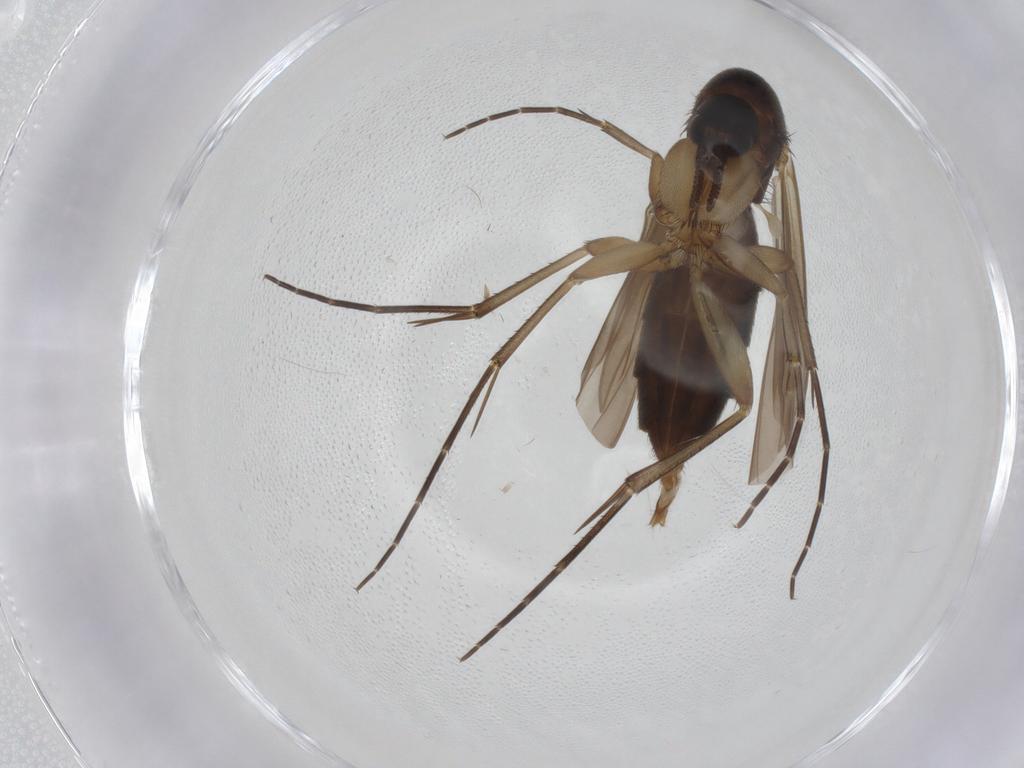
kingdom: Animalia
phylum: Arthropoda
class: Insecta
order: Diptera
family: Mycetophilidae
